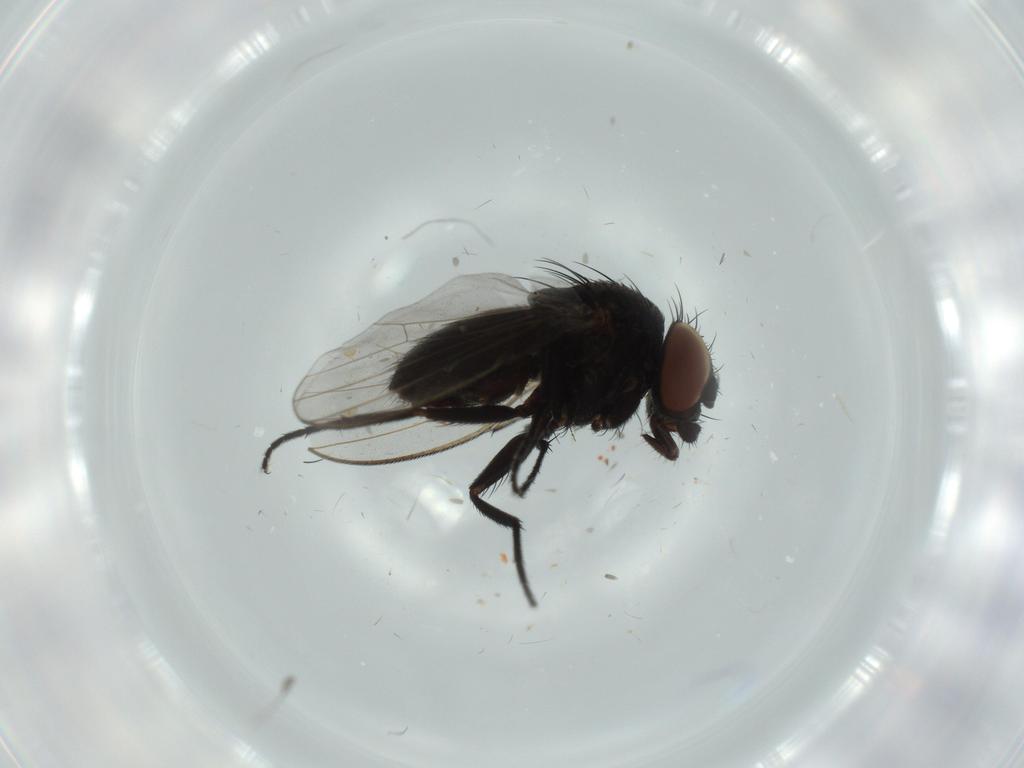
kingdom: Animalia
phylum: Arthropoda
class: Insecta
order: Diptera
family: Milichiidae
